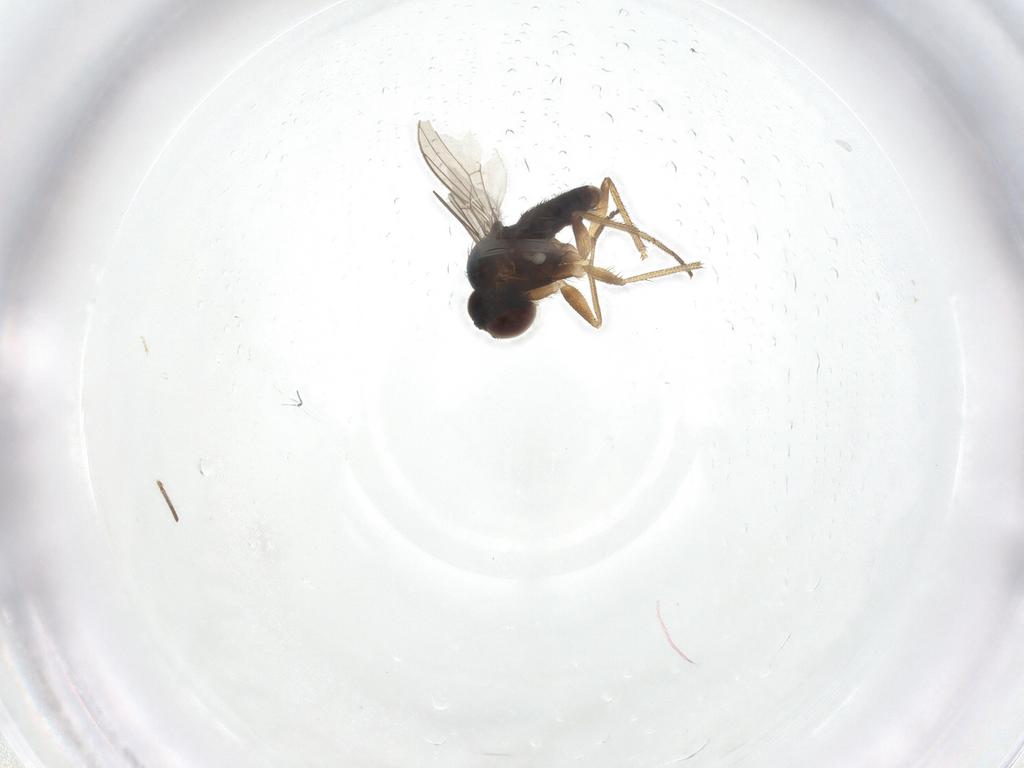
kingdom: Animalia
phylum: Arthropoda
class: Insecta
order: Diptera
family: Dolichopodidae
